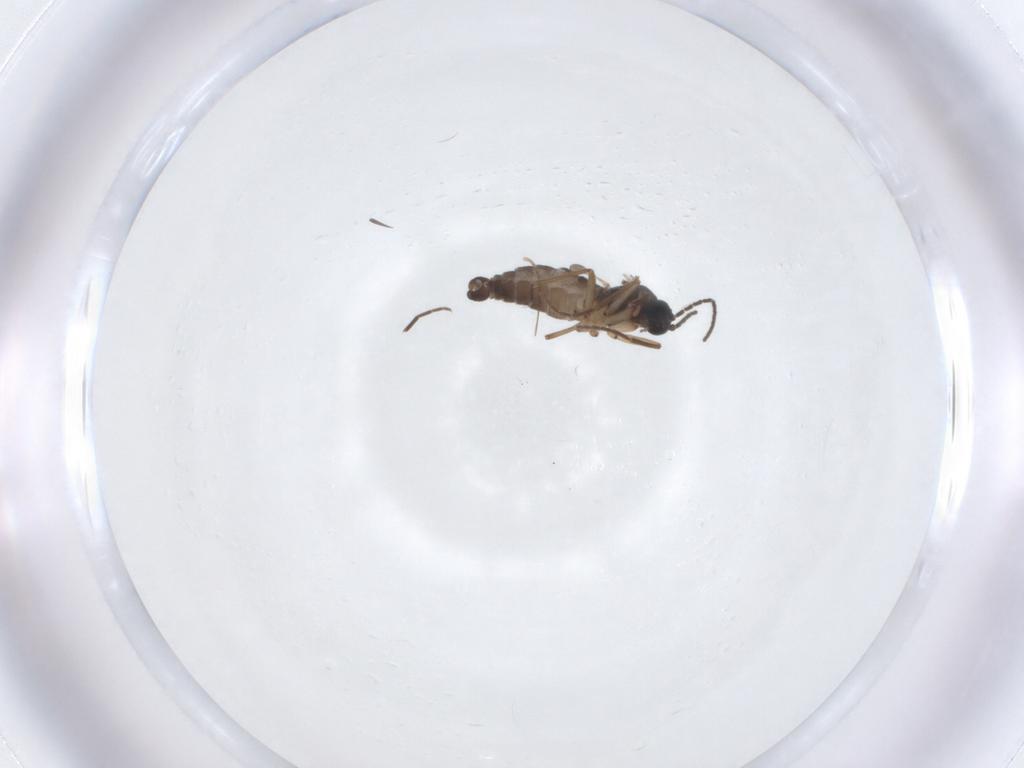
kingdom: Animalia
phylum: Arthropoda
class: Insecta
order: Diptera
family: Sciaridae
